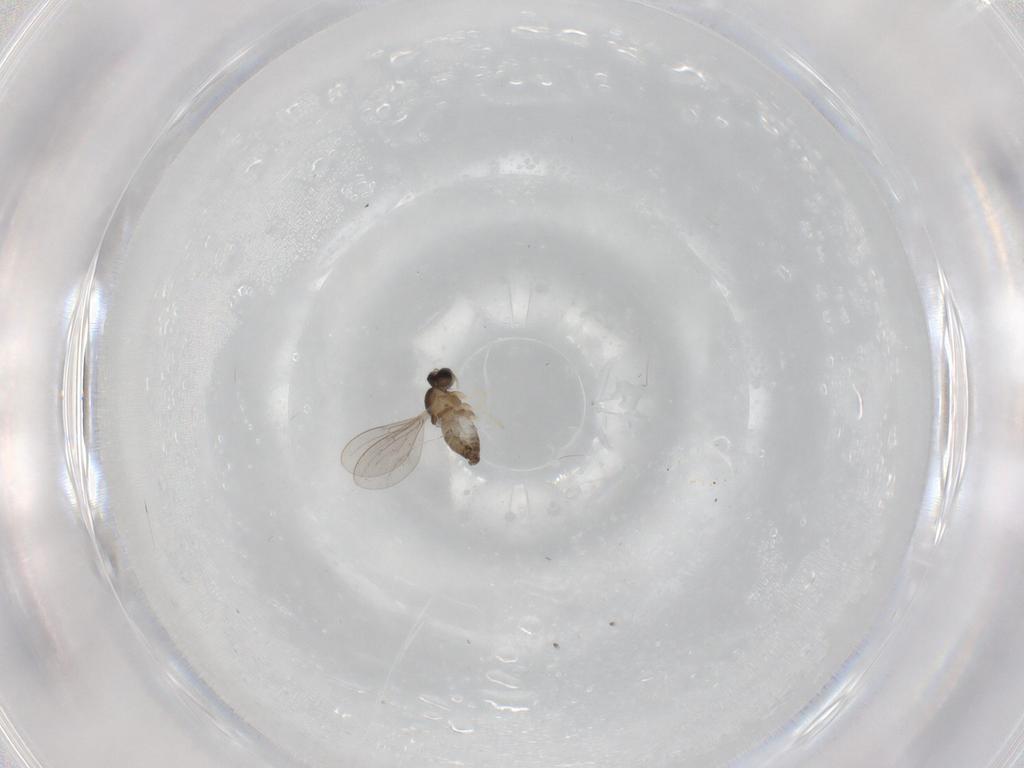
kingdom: Animalia
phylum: Arthropoda
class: Insecta
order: Diptera
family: Cecidomyiidae
